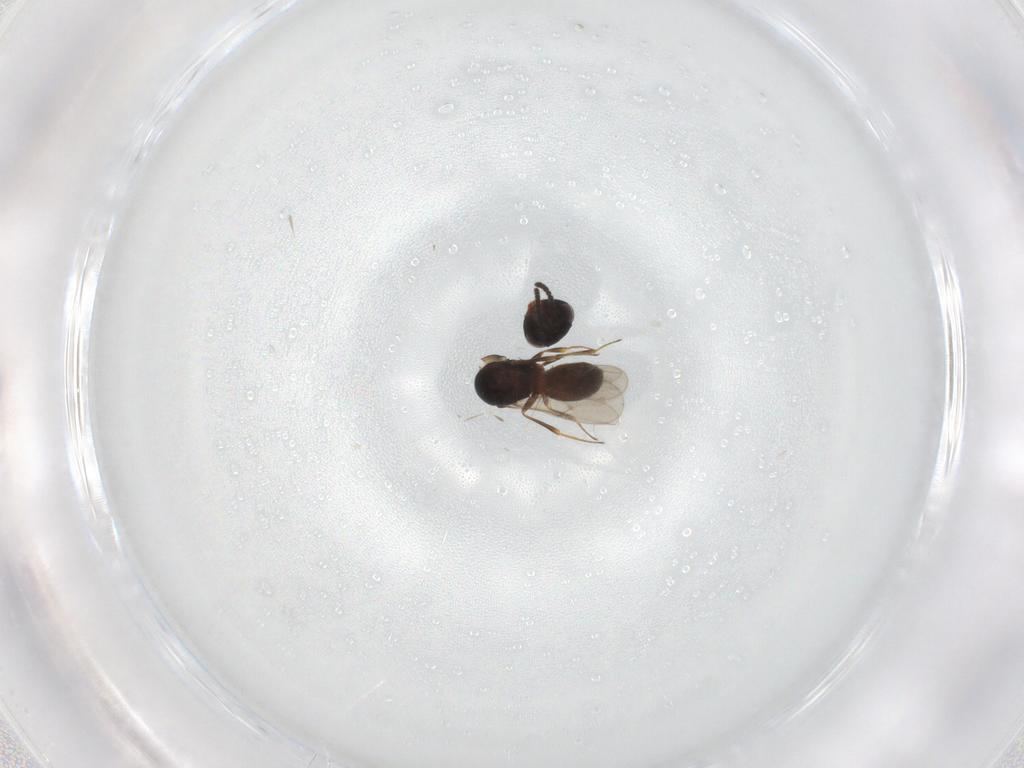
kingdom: Animalia
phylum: Arthropoda
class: Insecta
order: Hymenoptera
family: Scelionidae
